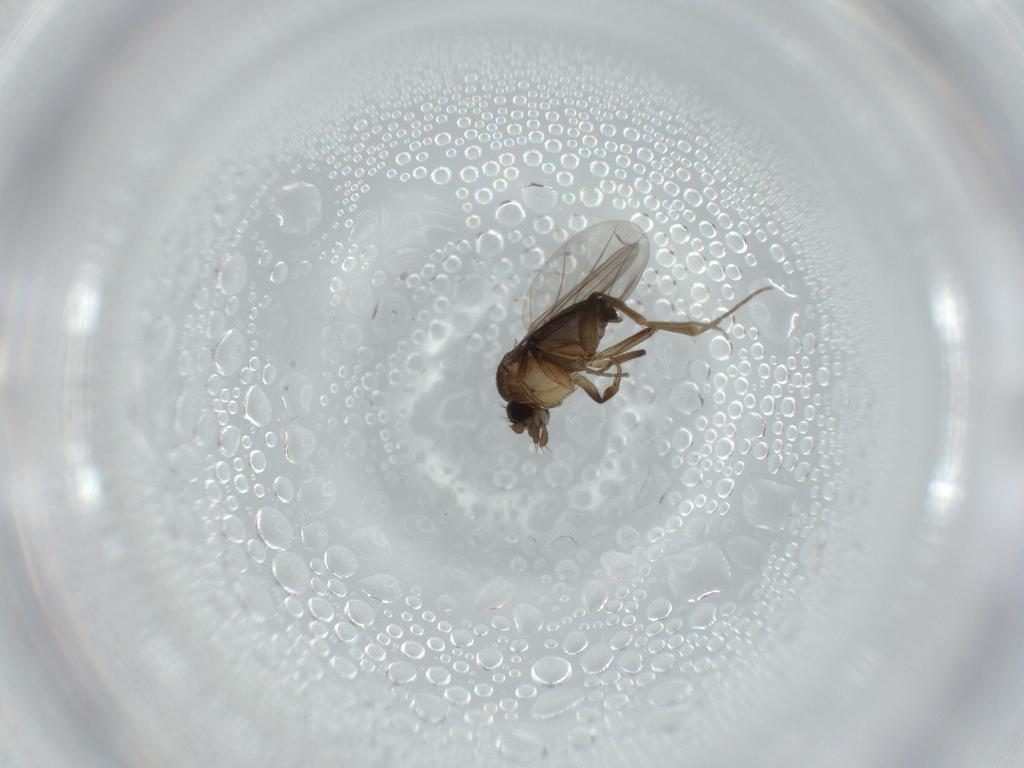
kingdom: Animalia
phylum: Arthropoda
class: Insecta
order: Diptera
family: Phoridae
